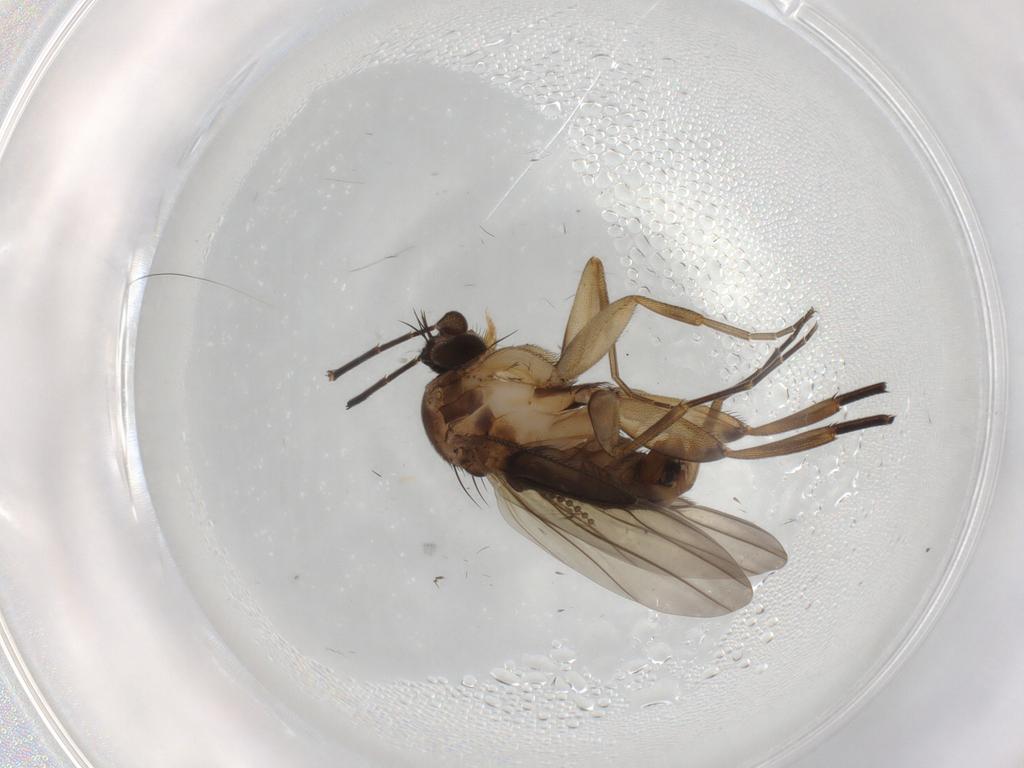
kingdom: Animalia
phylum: Arthropoda
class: Insecta
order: Diptera
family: Phoridae
